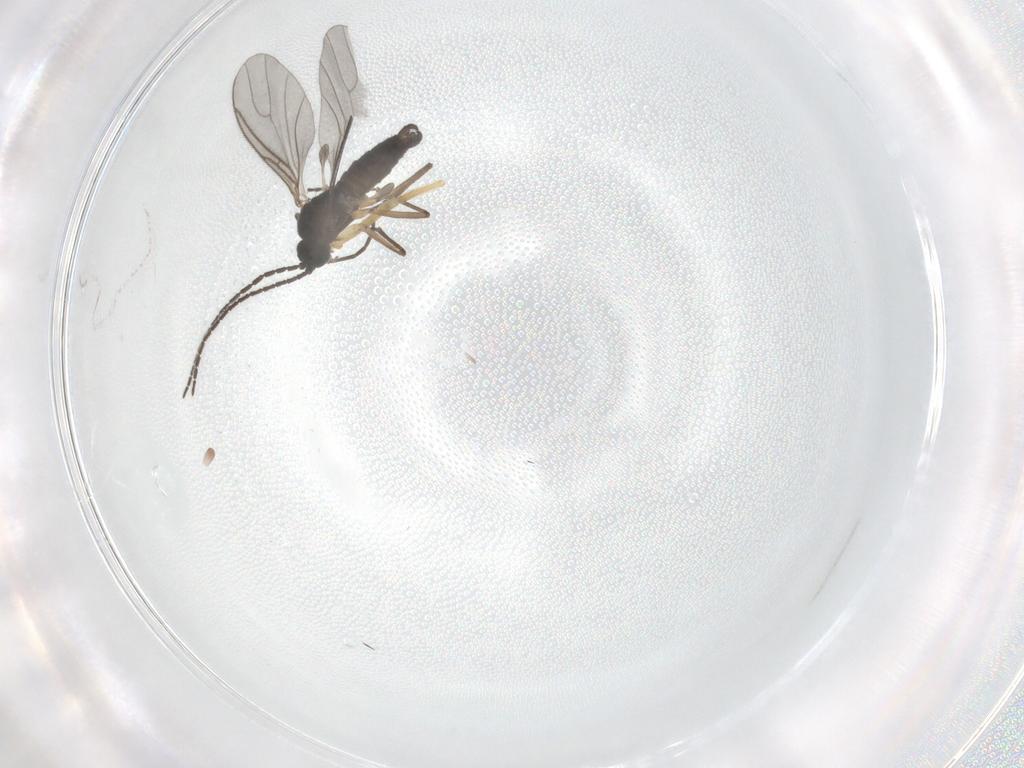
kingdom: Animalia
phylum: Arthropoda
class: Insecta
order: Diptera
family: Sciaridae
